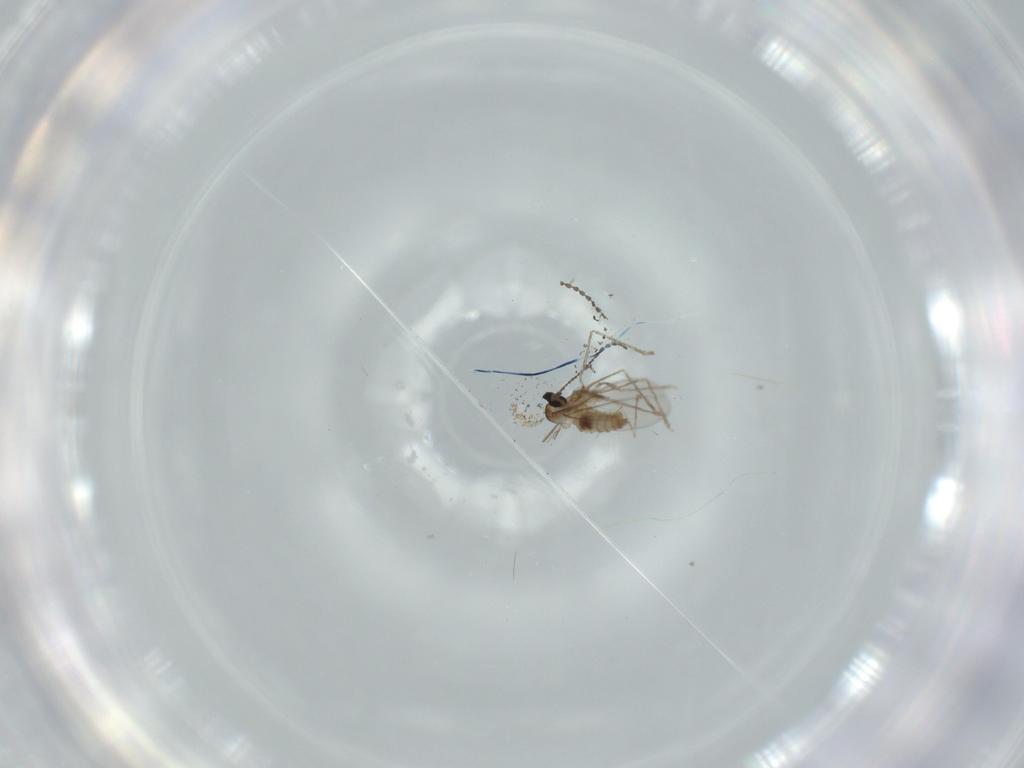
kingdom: Animalia
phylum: Arthropoda
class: Insecta
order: Diptera
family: Cecidomyiidae
